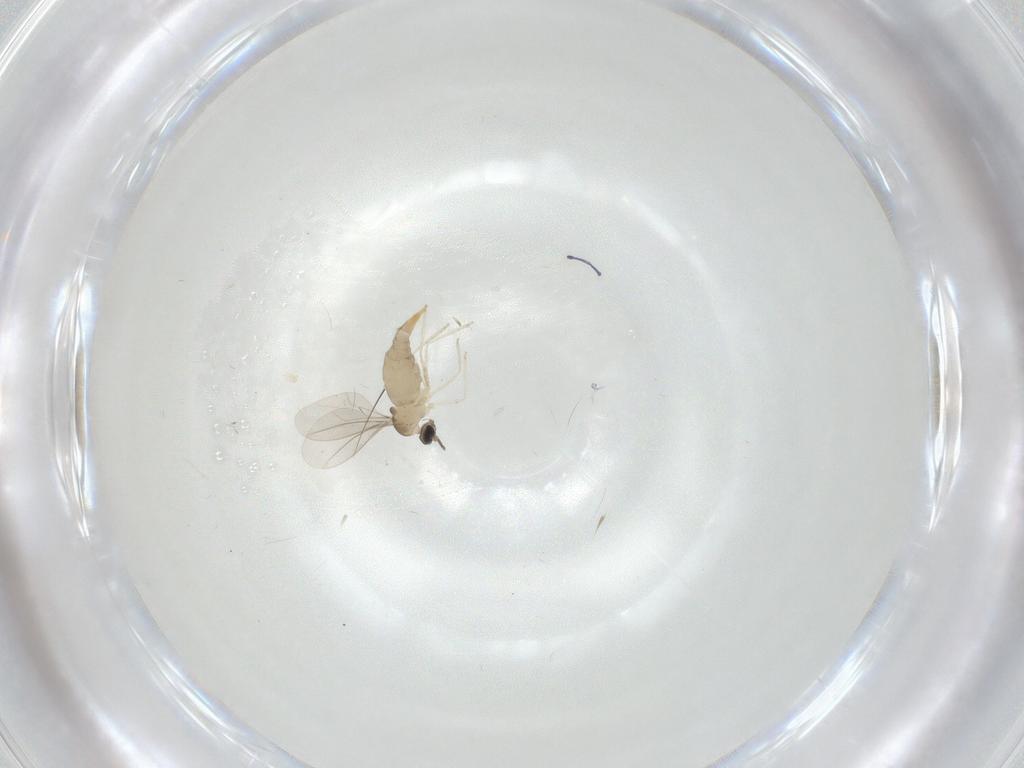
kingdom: Animalia
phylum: Arthropoda
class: Insecta
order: Diptera
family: Cecidomyiidae
